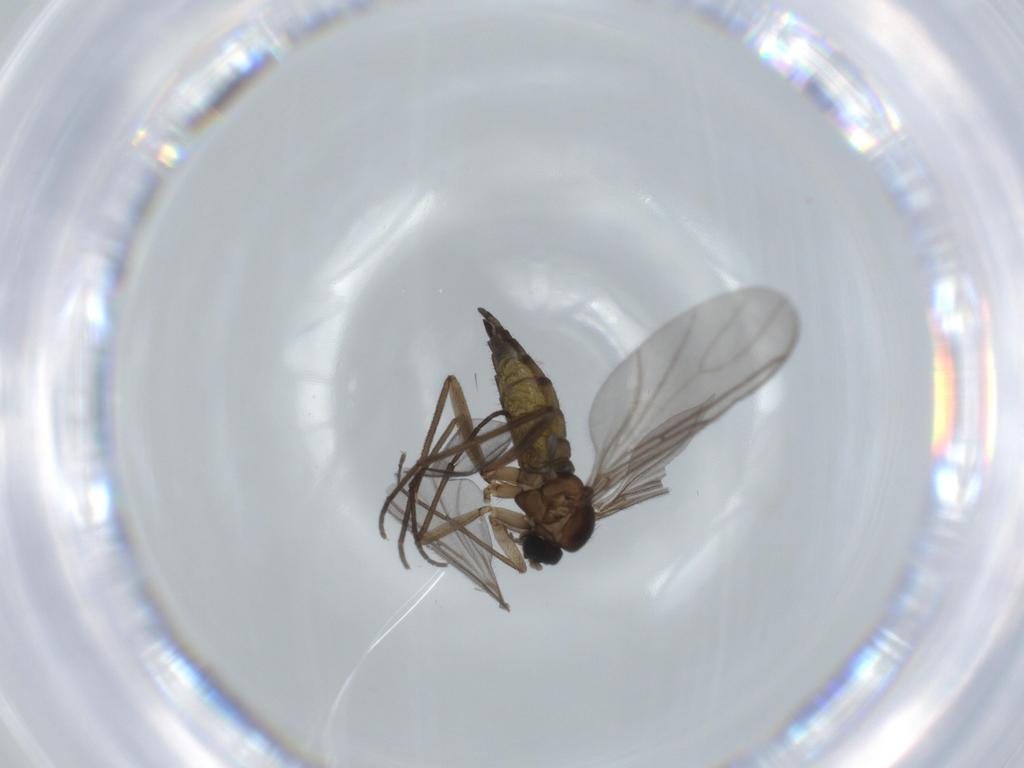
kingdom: Animalia
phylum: Arthropoda
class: Insecta
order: Diptera
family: Sciaridae
